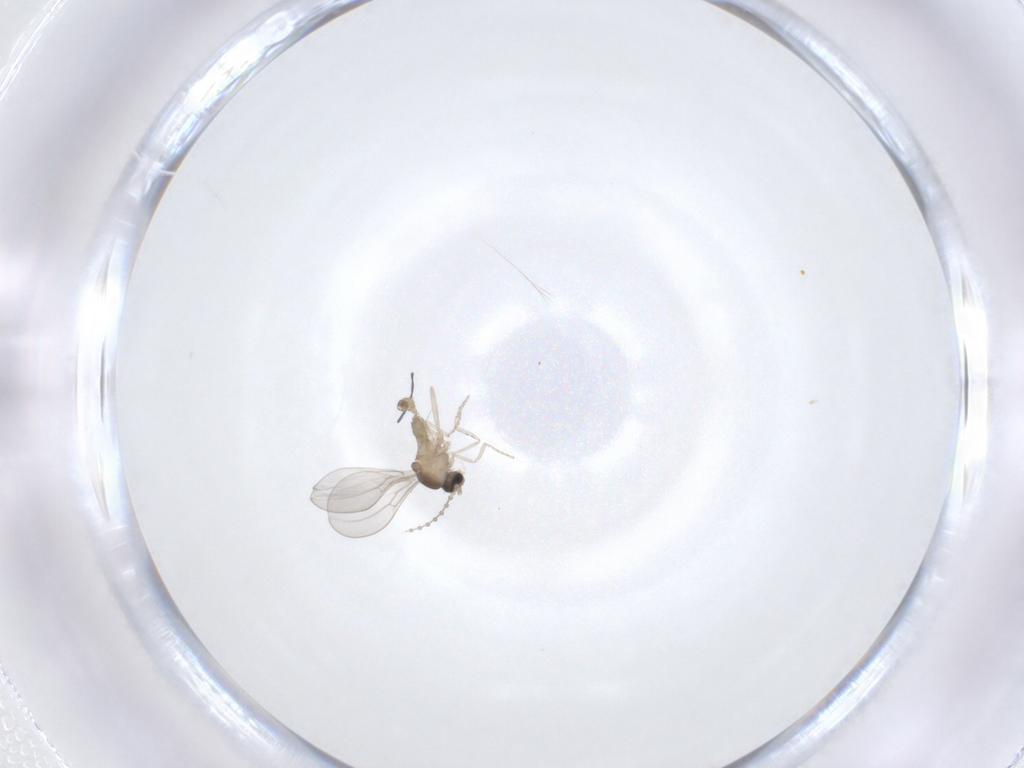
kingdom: Animalia
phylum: Arthropoda
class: Insecta
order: Diptera
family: Cecidomyiidae
